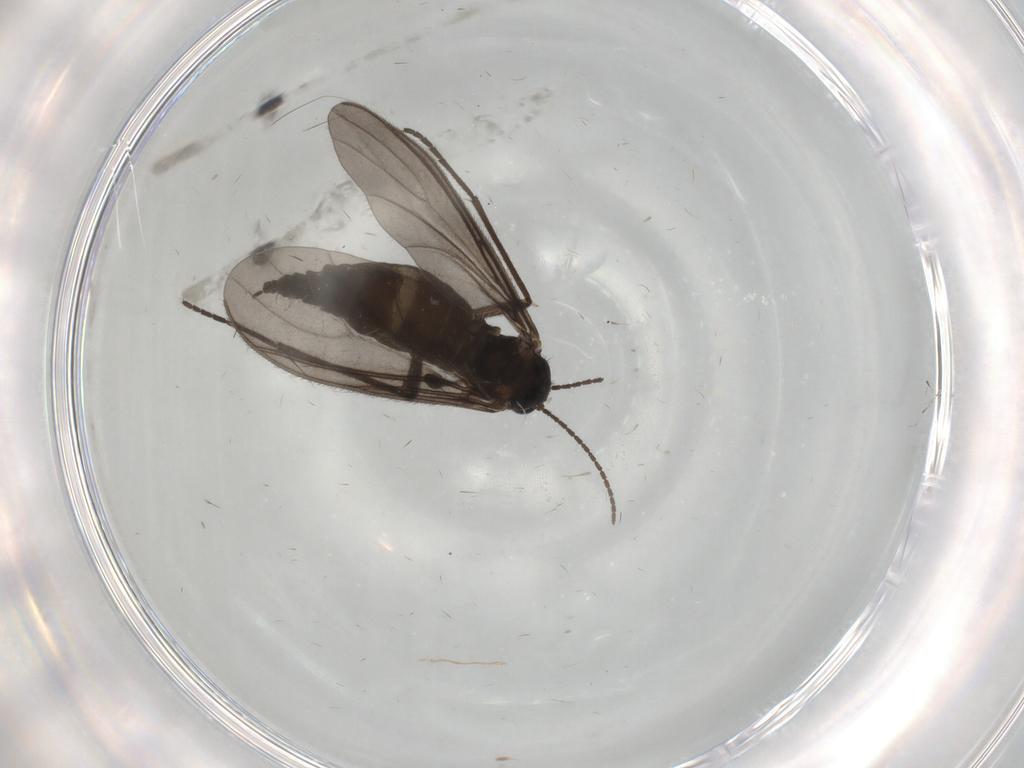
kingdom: Animalia
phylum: Arthropoda
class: Insecta
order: Diptera
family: Sciaridae
